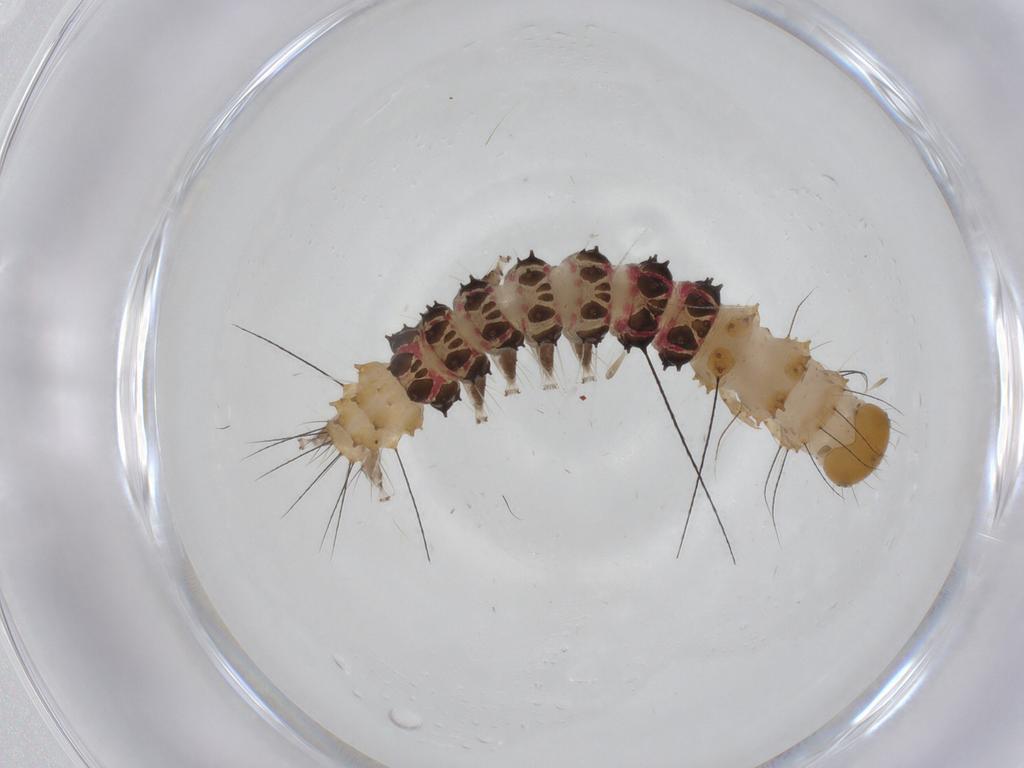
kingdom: Animalia
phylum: Arthropoda
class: Insecta
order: Lepidoptera
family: Erebidae
